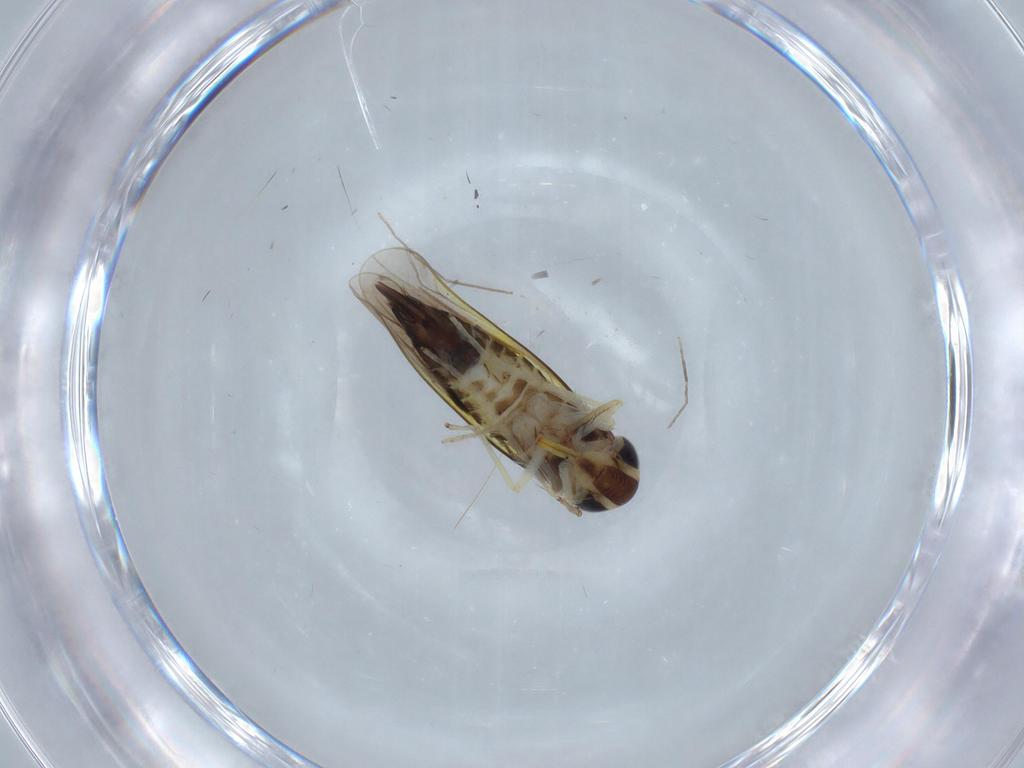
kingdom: Animalia
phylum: Arthropoda
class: Insecta
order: Hemiptera
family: Cicadellidae
